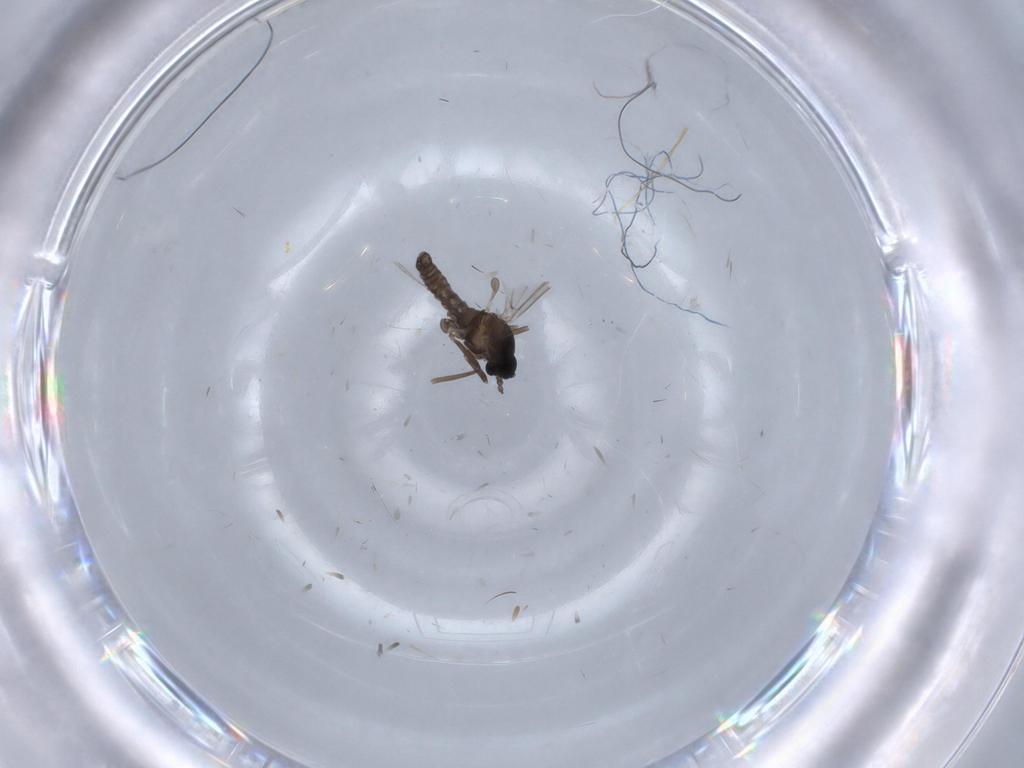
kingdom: Animalia
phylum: Arthropoda
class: Insecta
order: Diptera
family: Cecidomyiidae
